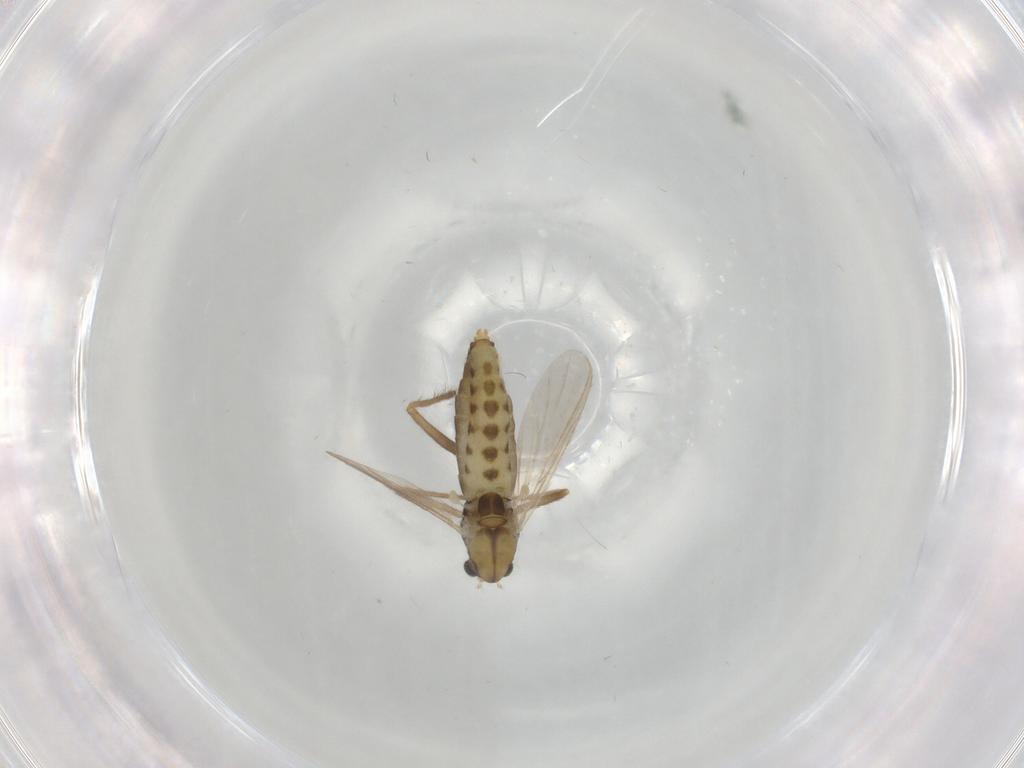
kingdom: Animalia
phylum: Arthropoda
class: Insecta
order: Diptera
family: Chironomidae
